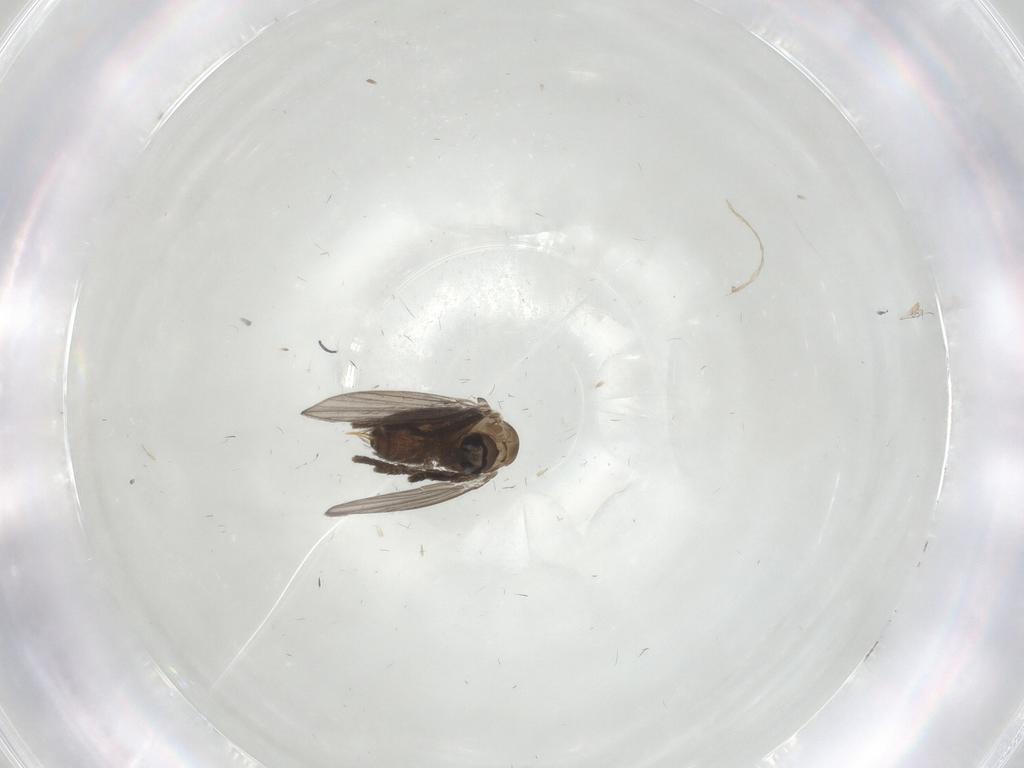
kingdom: Animalia
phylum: Arthropoda
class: Insecta
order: Diptera
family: Psychodidae
